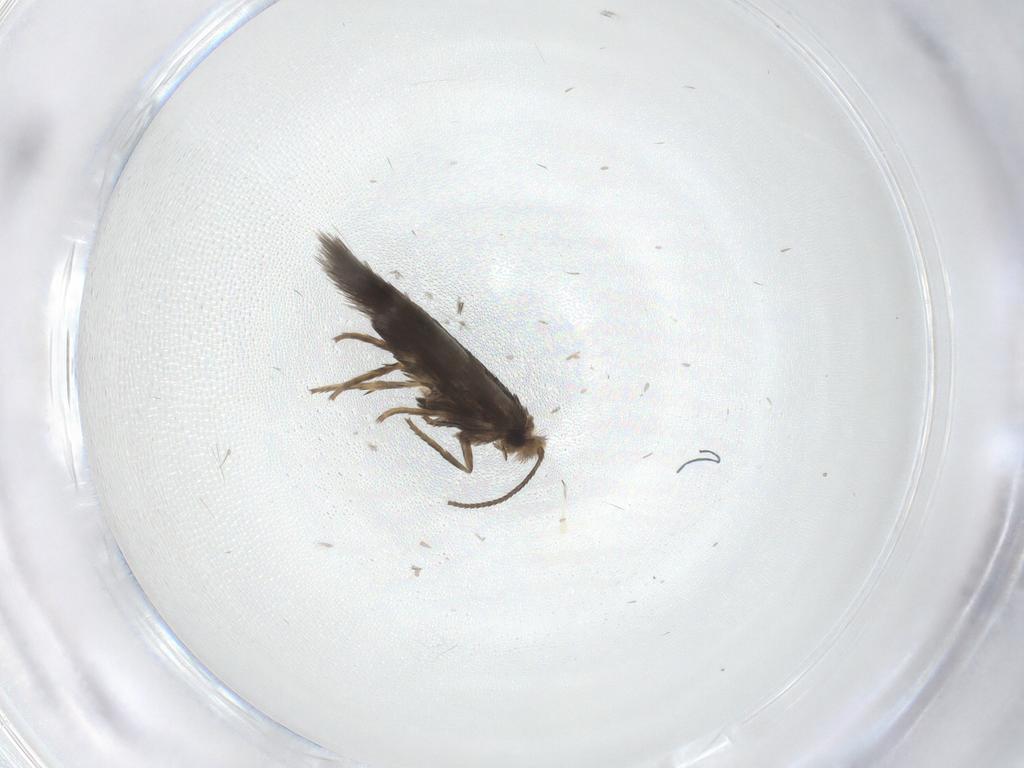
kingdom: Animalia
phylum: Arthropoda
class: Insecta
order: Lepidoptera
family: Nepticulidae
